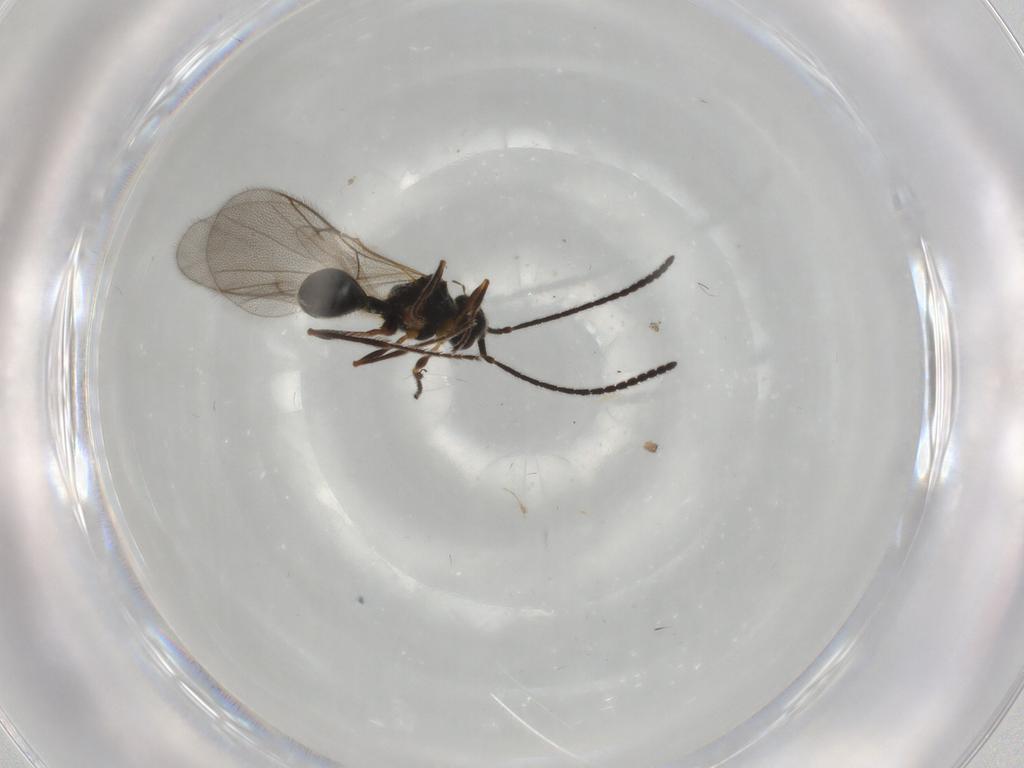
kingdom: Animalia
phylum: Arthropoda
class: Insecta
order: Hymenoptera
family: Diapriidae
